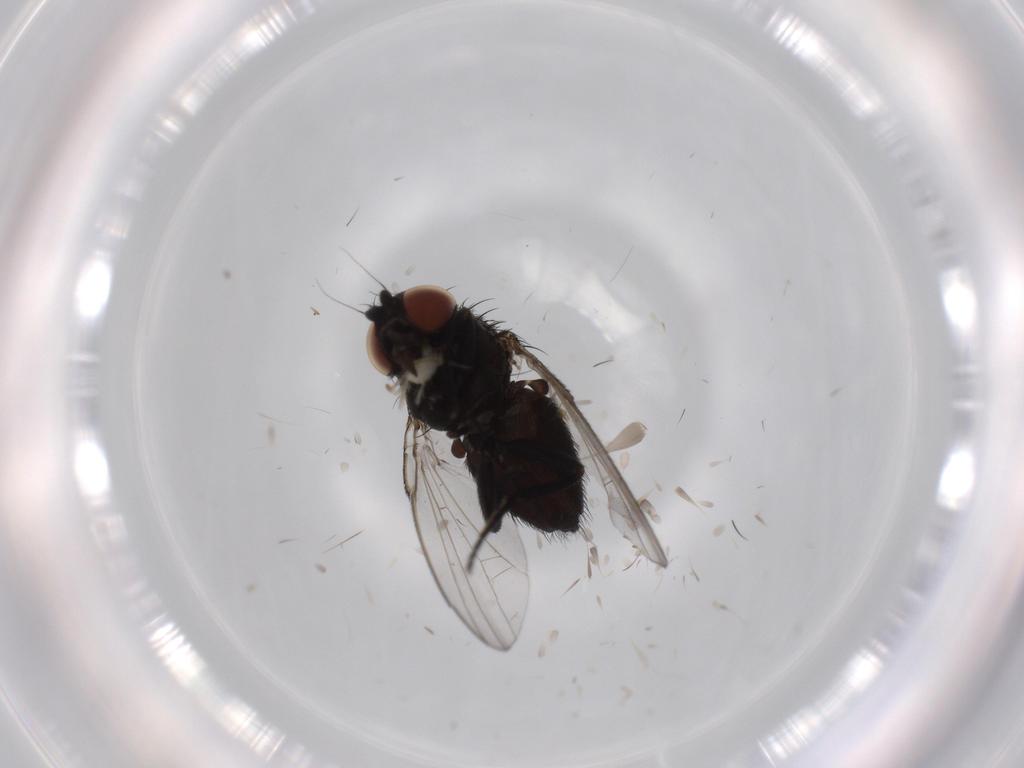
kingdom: Animalia
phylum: Arthropoda
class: Insecta
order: Diptera
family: Milichiidae
